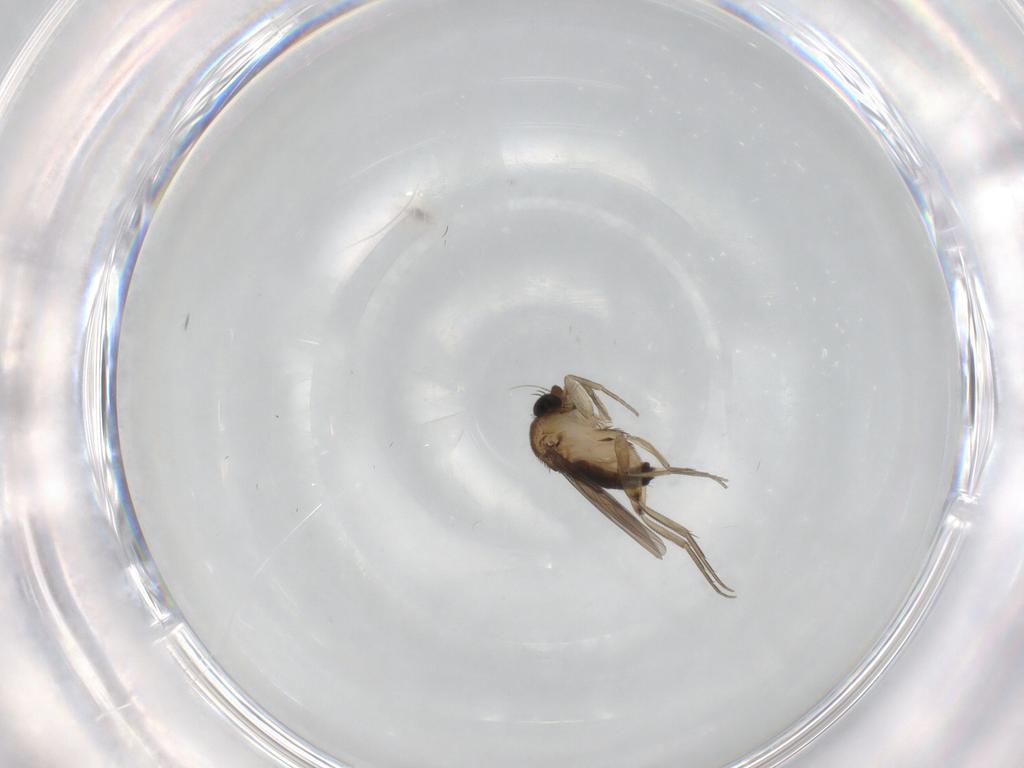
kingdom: Animalia
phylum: Arthropoda
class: Insecta
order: Diptera
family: Phoridae
